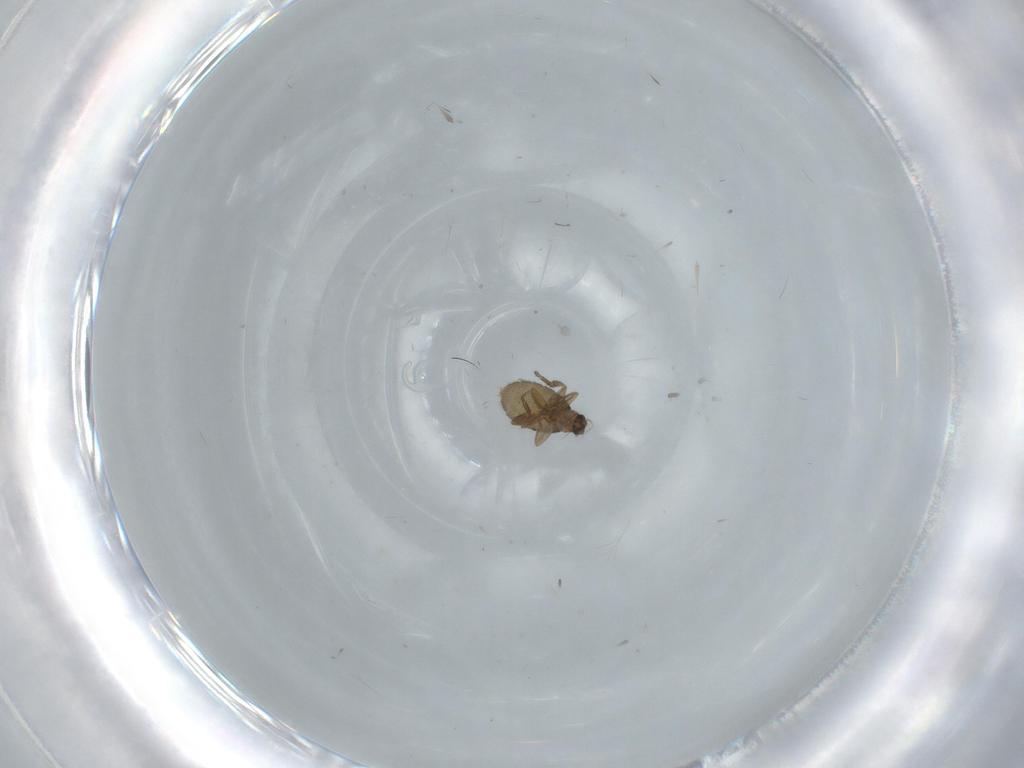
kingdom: Animalia
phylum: Arthropoda
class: Insecta
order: Diptera
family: Phoridae
